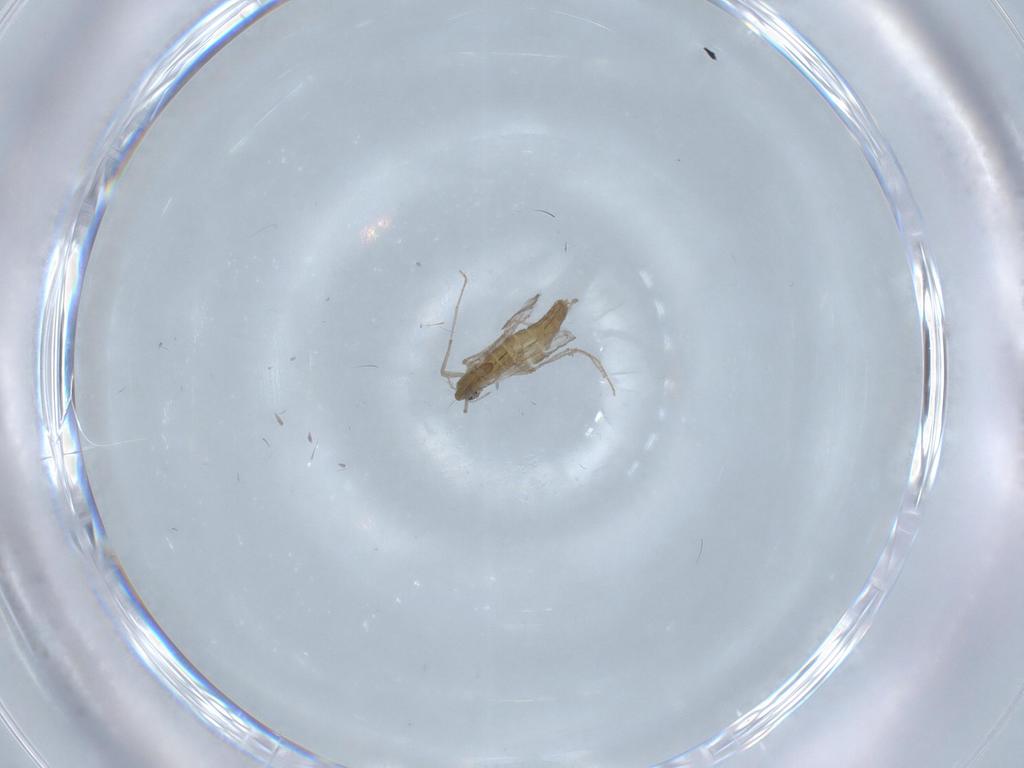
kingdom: Animalia
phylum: Arthropoda
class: Insecta
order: Diptera
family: Chironomidae
